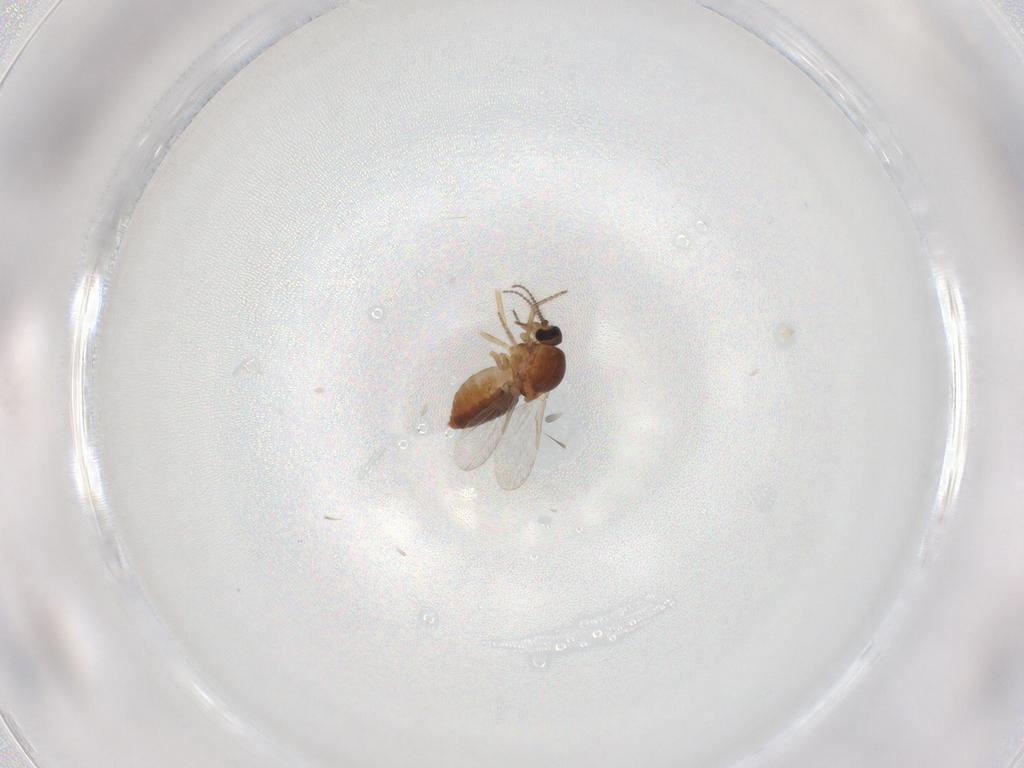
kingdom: Animalia
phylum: Arthropoda
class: Insecta
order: Diptera
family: Ceratopogonidae
